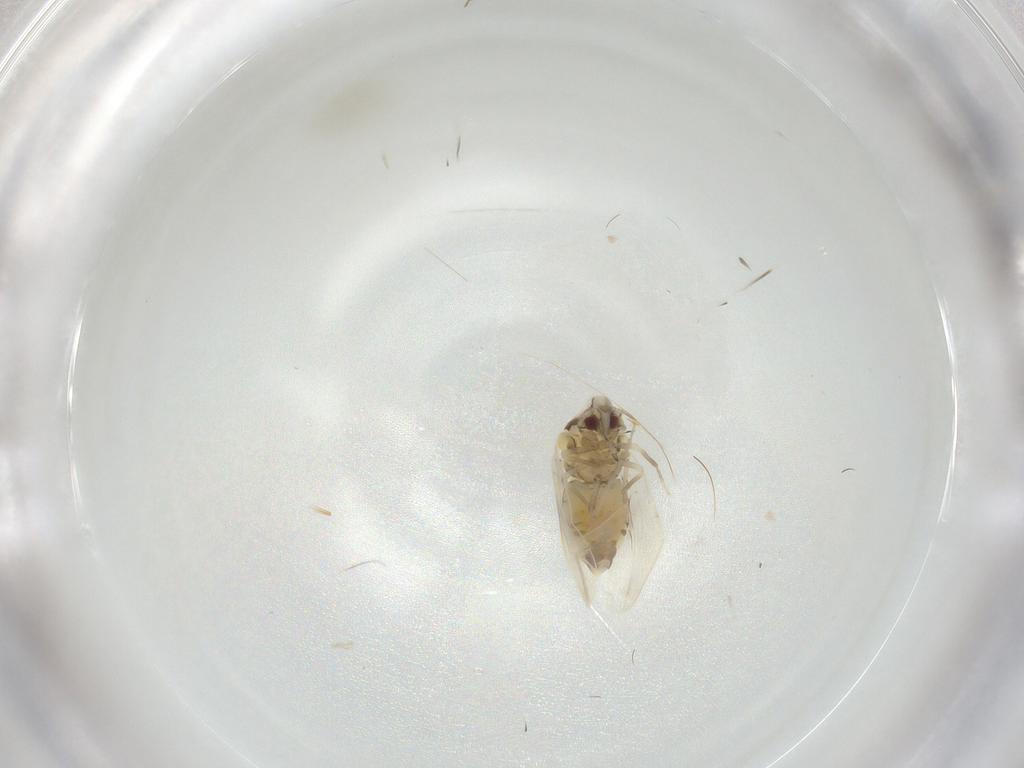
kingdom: Animalia
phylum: Arthropoda
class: Insecta
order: Hemiptera
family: Aleyrodidae
